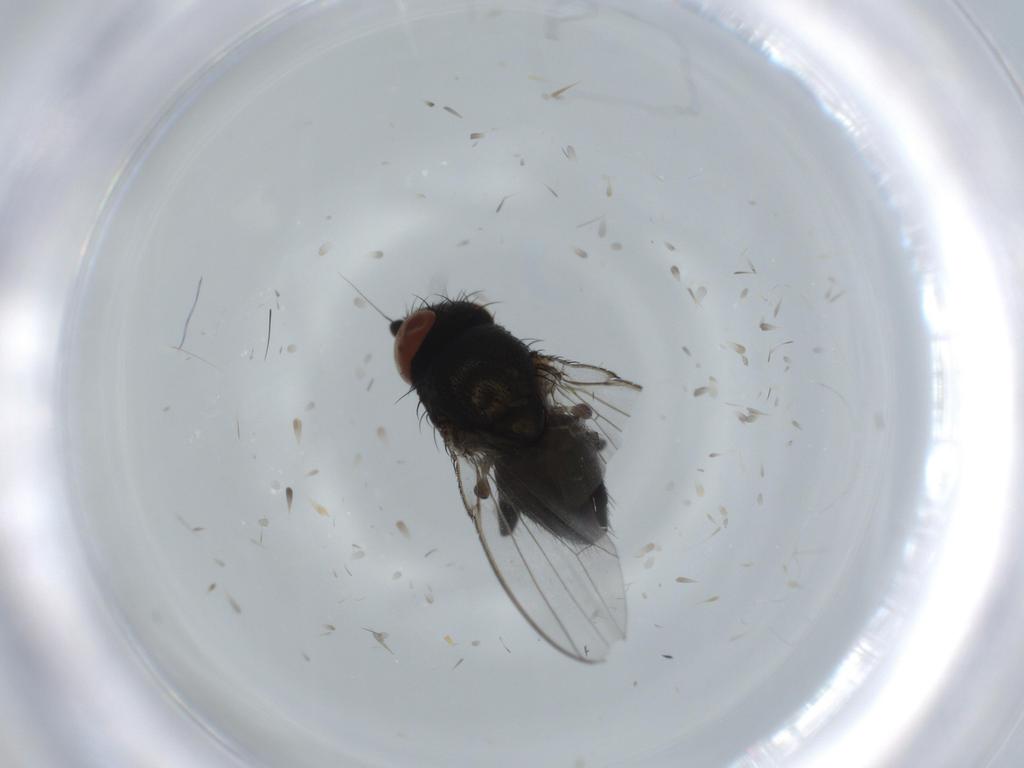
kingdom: Animalia
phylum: Arthropoda
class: Insecta
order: Diptera
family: Milichiidae
